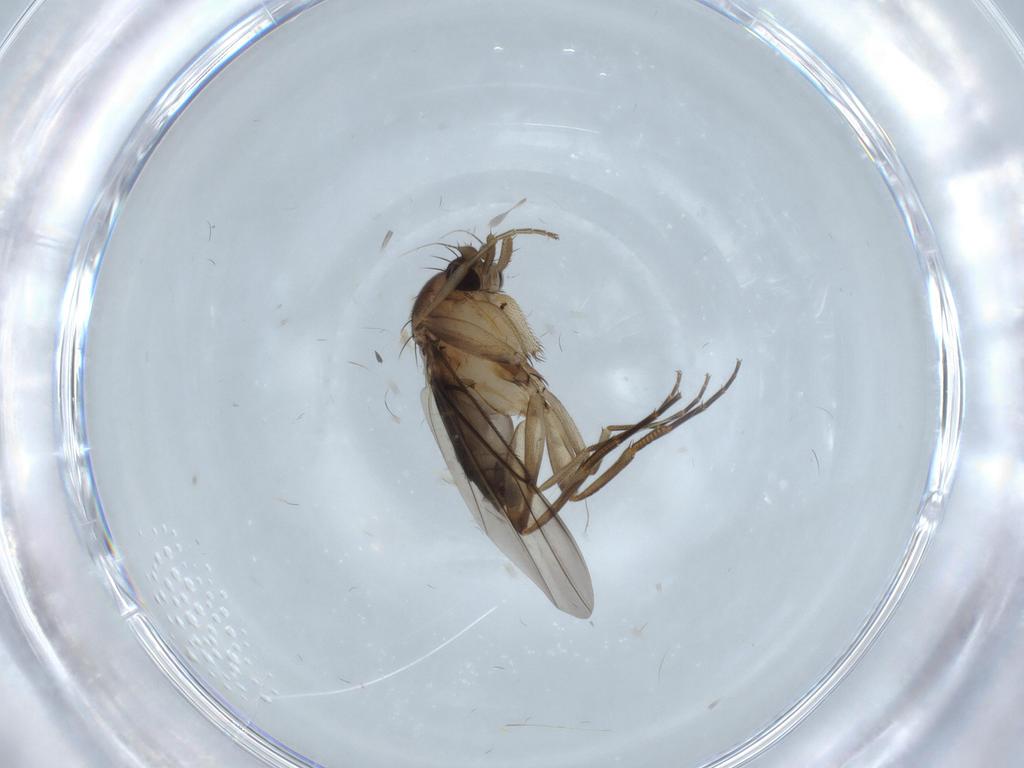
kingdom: Animalia
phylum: Arthropoda
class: Insecta
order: Diptera
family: Phoridae
